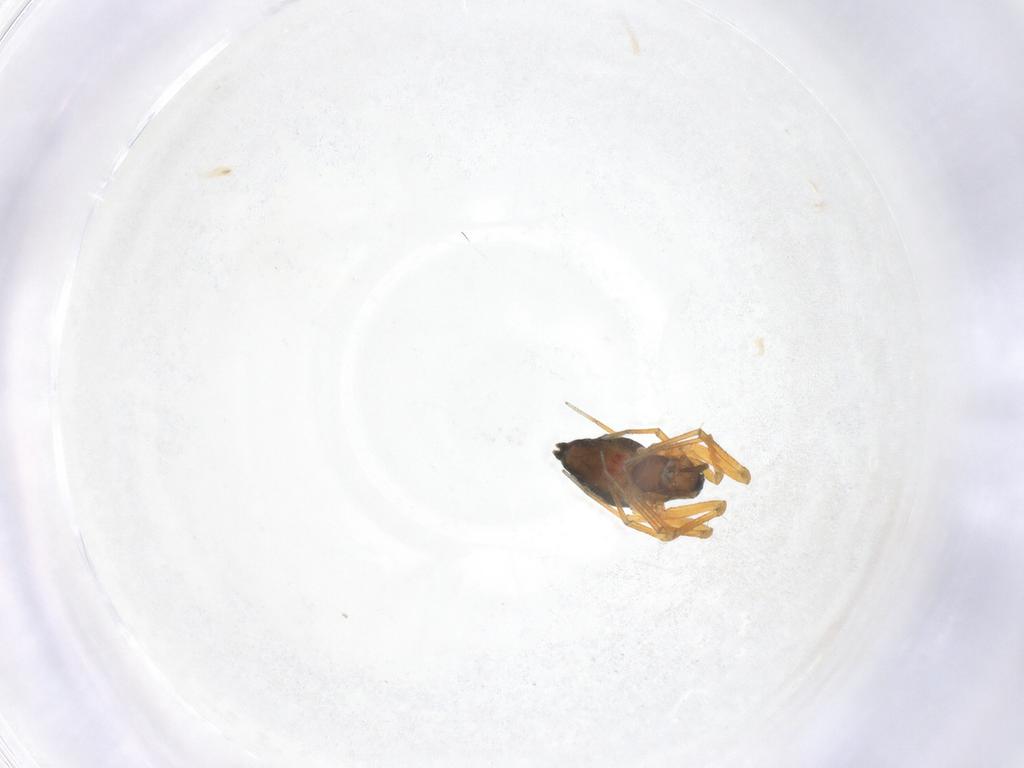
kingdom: Animalia
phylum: Arthropoda
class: Arachnida
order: Araneae
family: Linyphiidae
